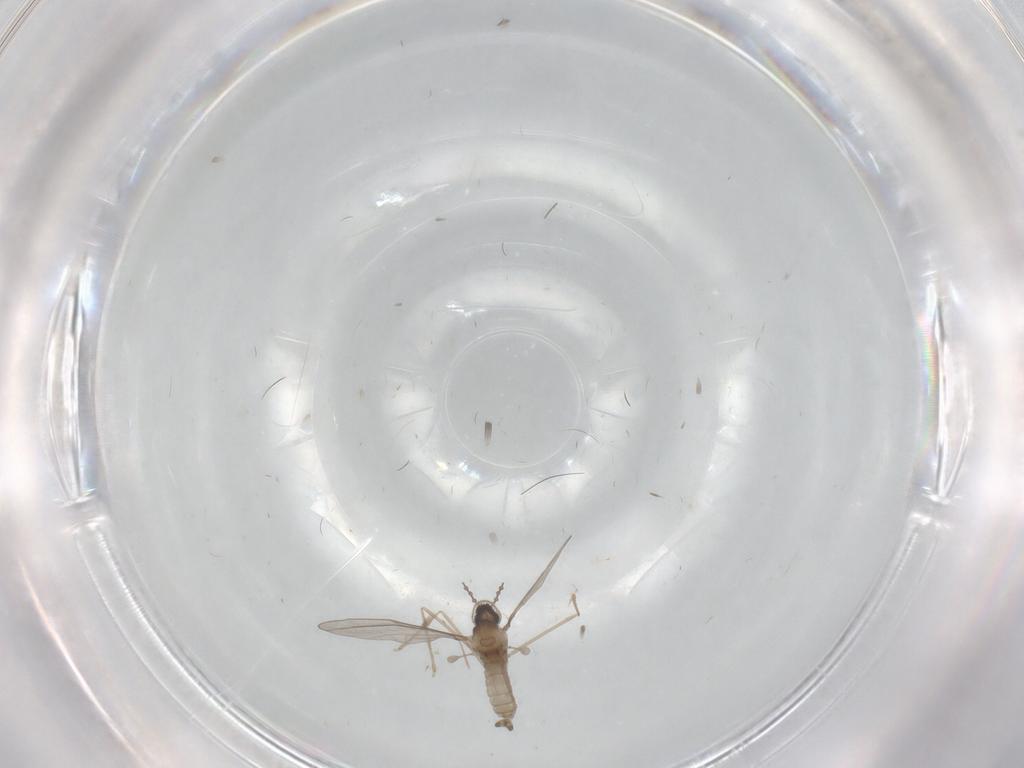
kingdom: Animalia
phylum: Arthropoda
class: Insecta
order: Diptera
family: Cecidomyiidae
